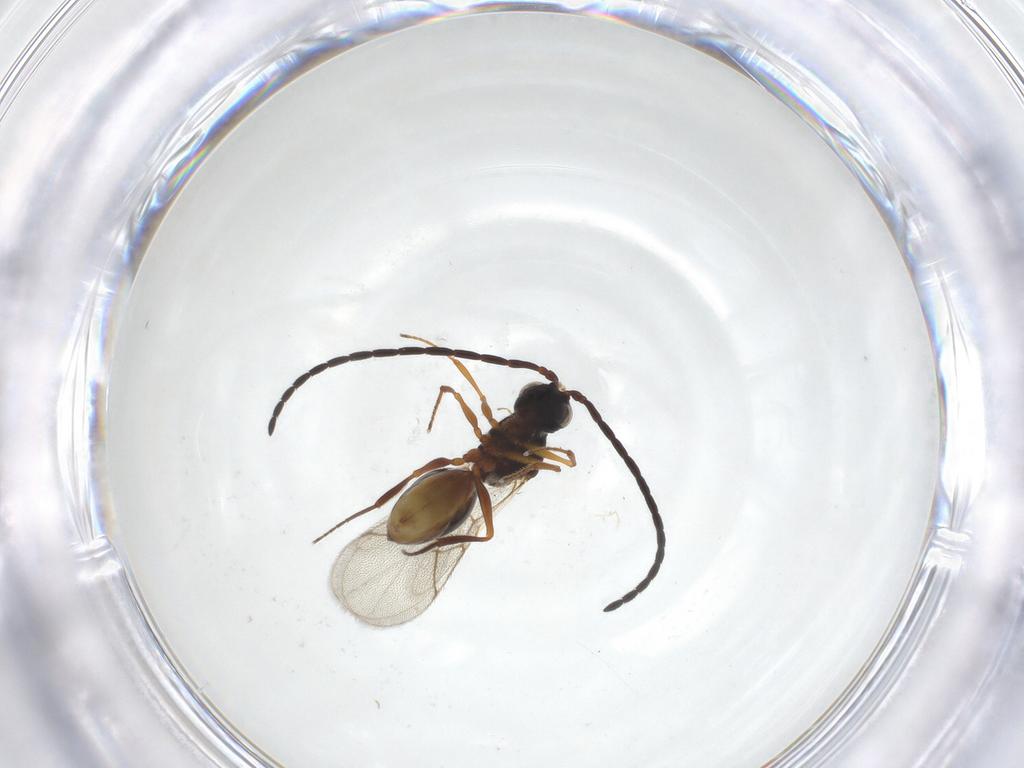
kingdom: Animalia
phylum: Arthropoda
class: Insecta
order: Hymenoptera
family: Figitidae
